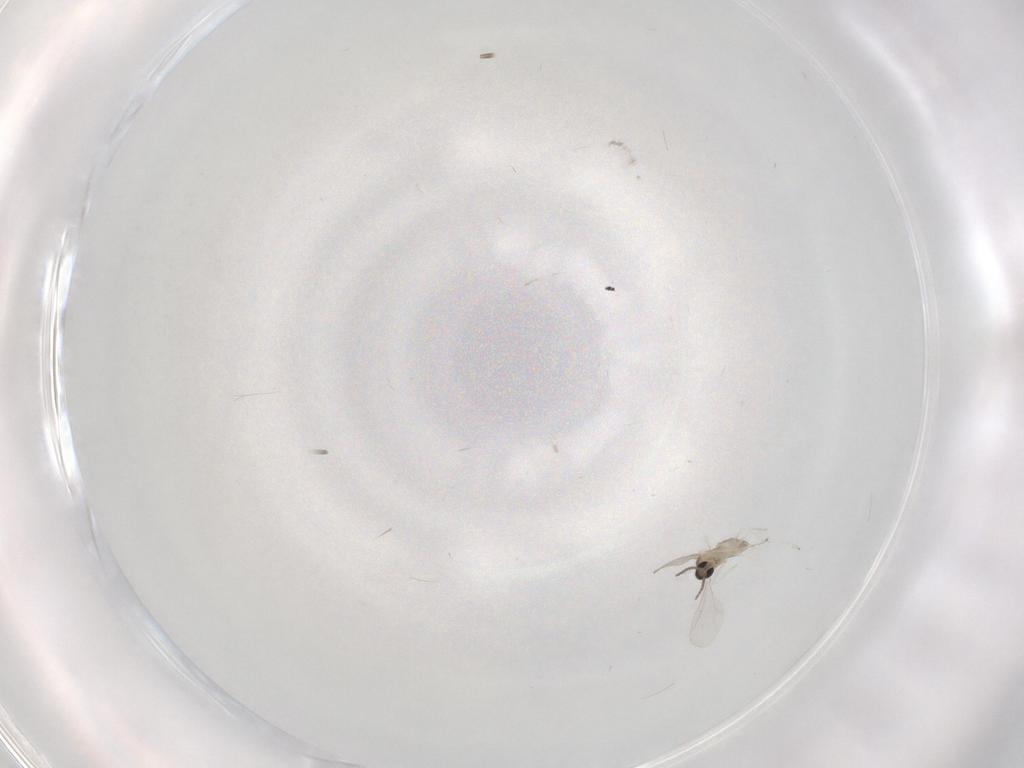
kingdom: Animalia
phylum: Arthropoda
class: Insecta
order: Diptera
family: Cecidomyiidae
